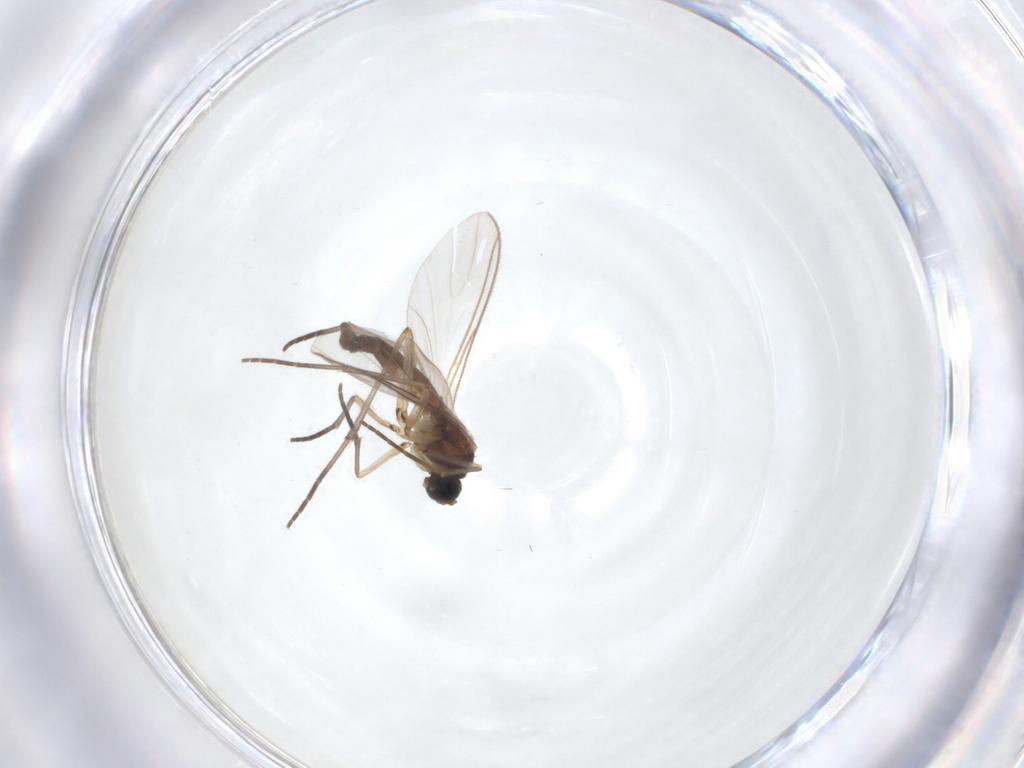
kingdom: Animalia
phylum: Arthropoda
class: Insecta
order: Diptera
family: Sciaridae
